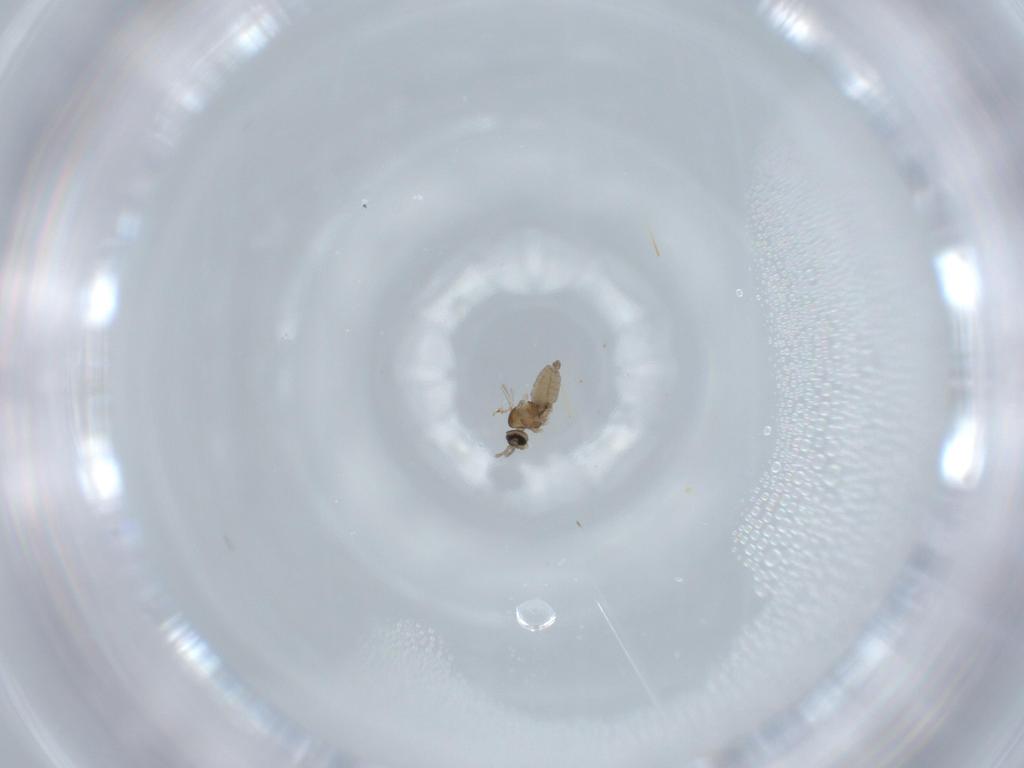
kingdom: Animalia
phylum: Arthropoda
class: Insecta
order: Diptera
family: Cecidomyiidae
